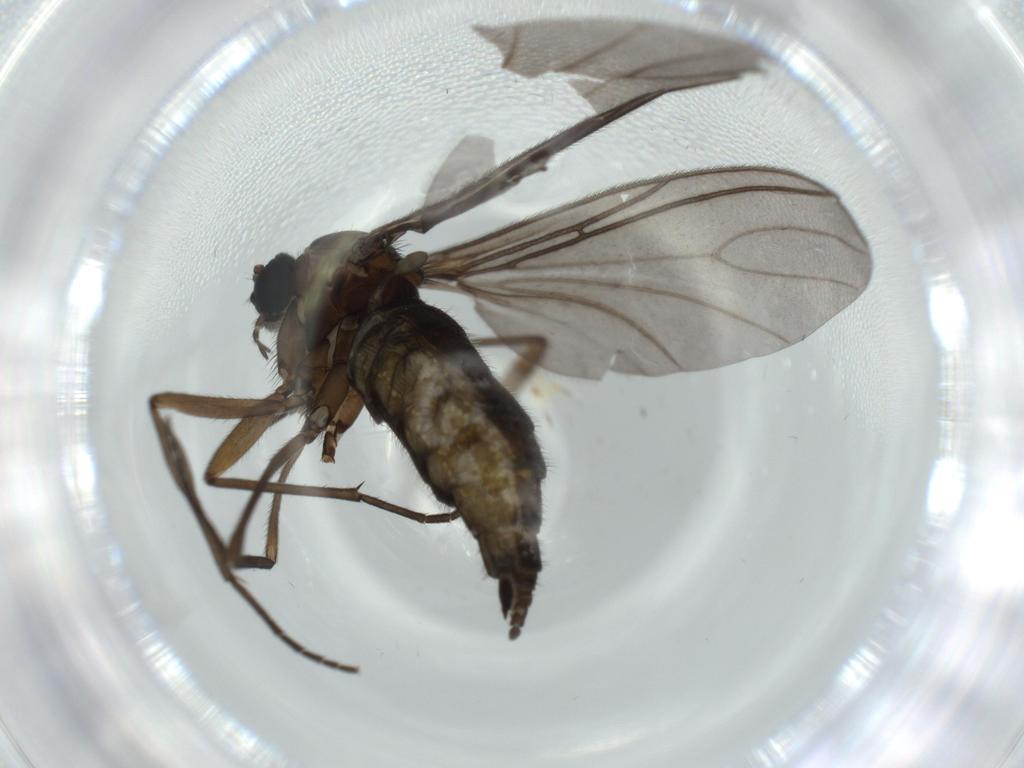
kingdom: Animalia
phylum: Arthropoda
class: Insecta
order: Diptera
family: Sciaridae
